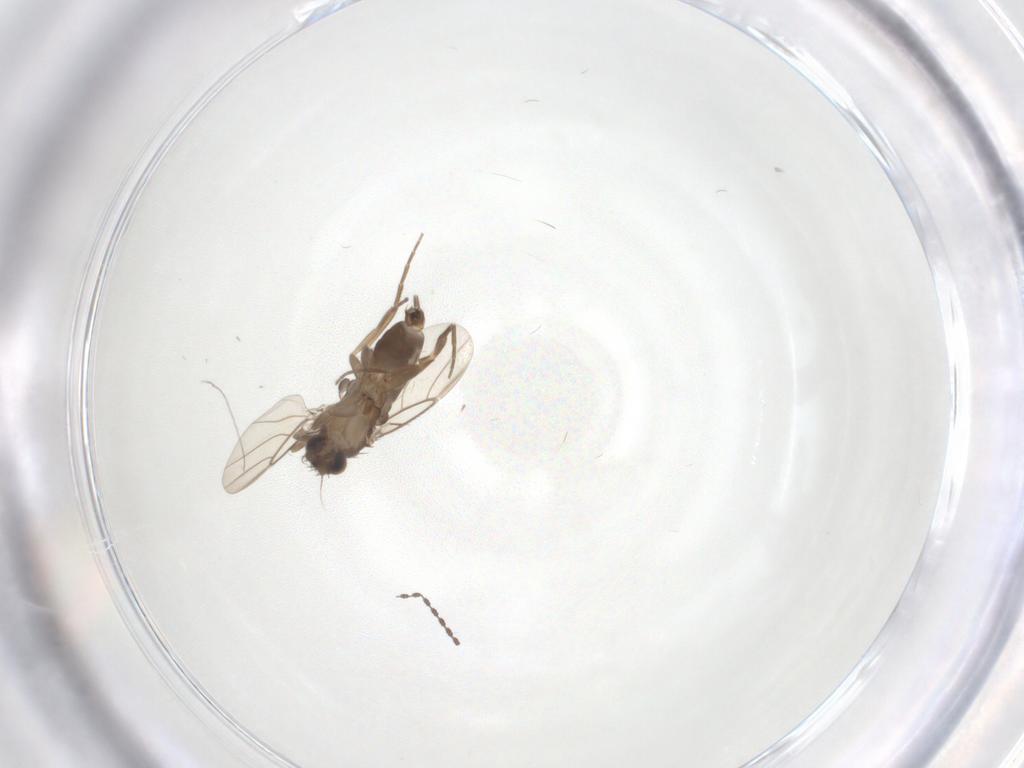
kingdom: Animalia
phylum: Arthropoda
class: Insecta
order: Diptera
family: Phoridae
